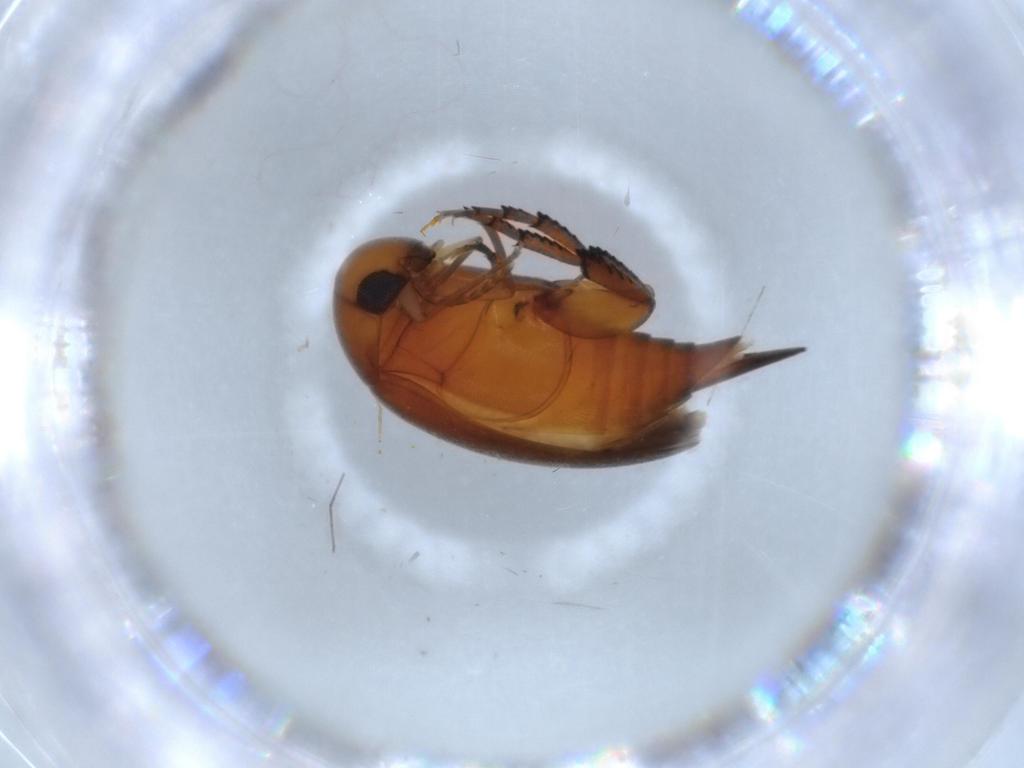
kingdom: Animalia
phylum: Arthropoda
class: Insecta
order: Coleoptera
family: Mordellidae
